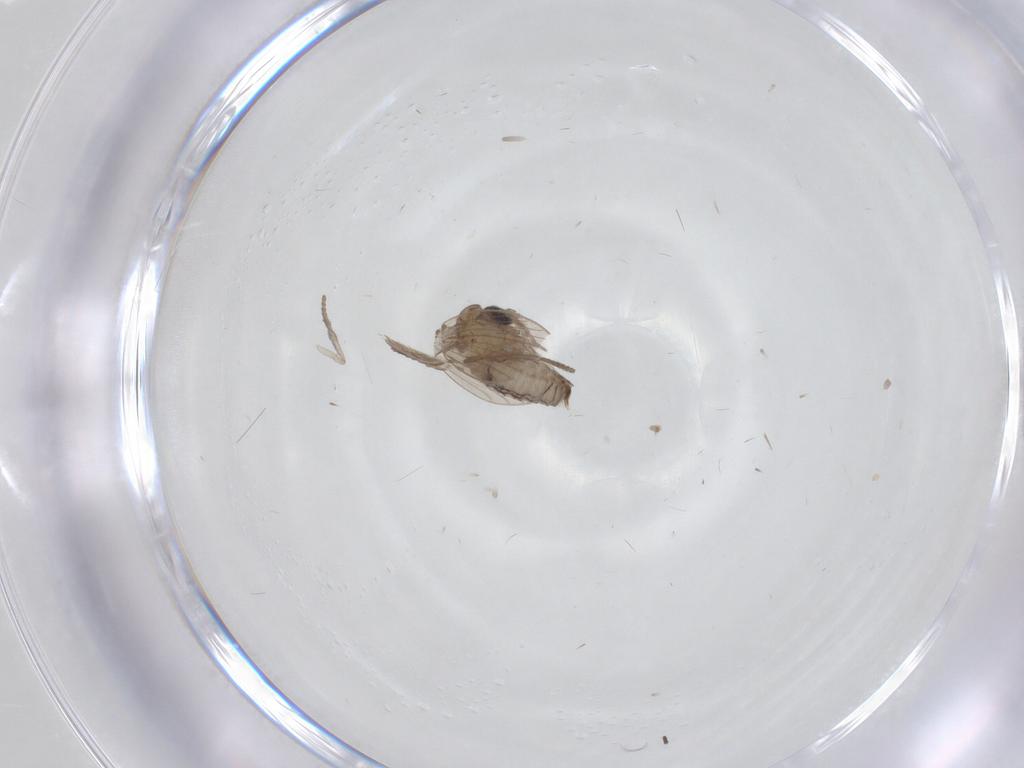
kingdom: Animalia
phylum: Arthropoda
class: Insecta
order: Diptera
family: Psychodidae
